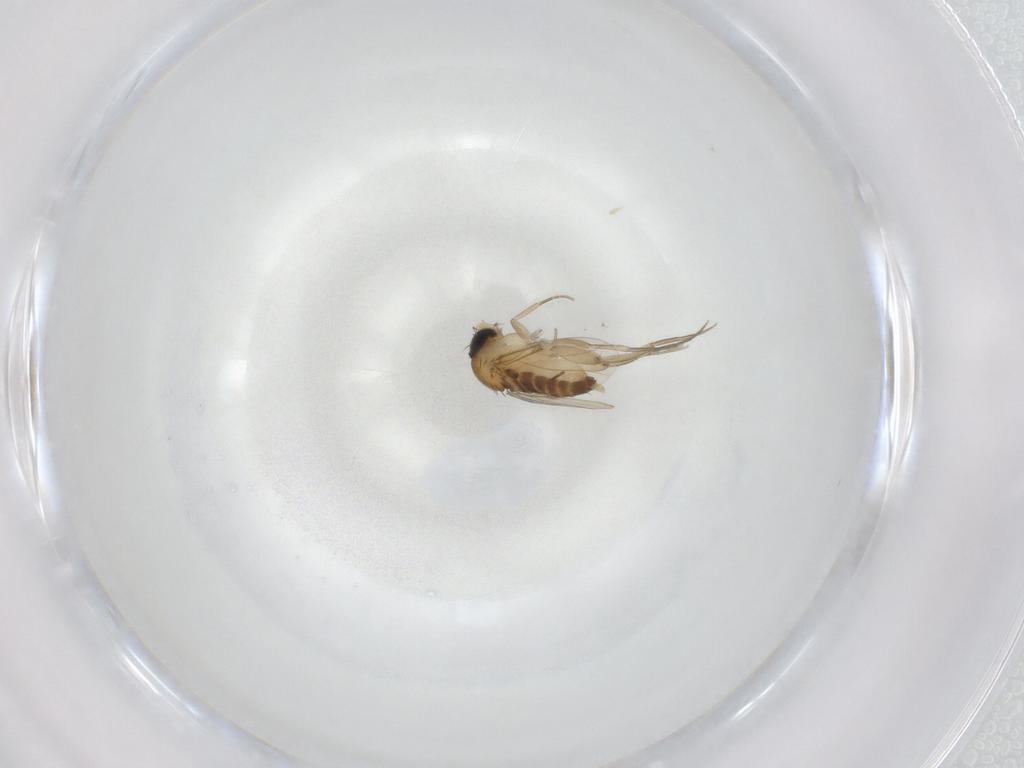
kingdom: Animalia
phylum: Arthropoda
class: Insecta
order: Diptera
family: Phoridae
